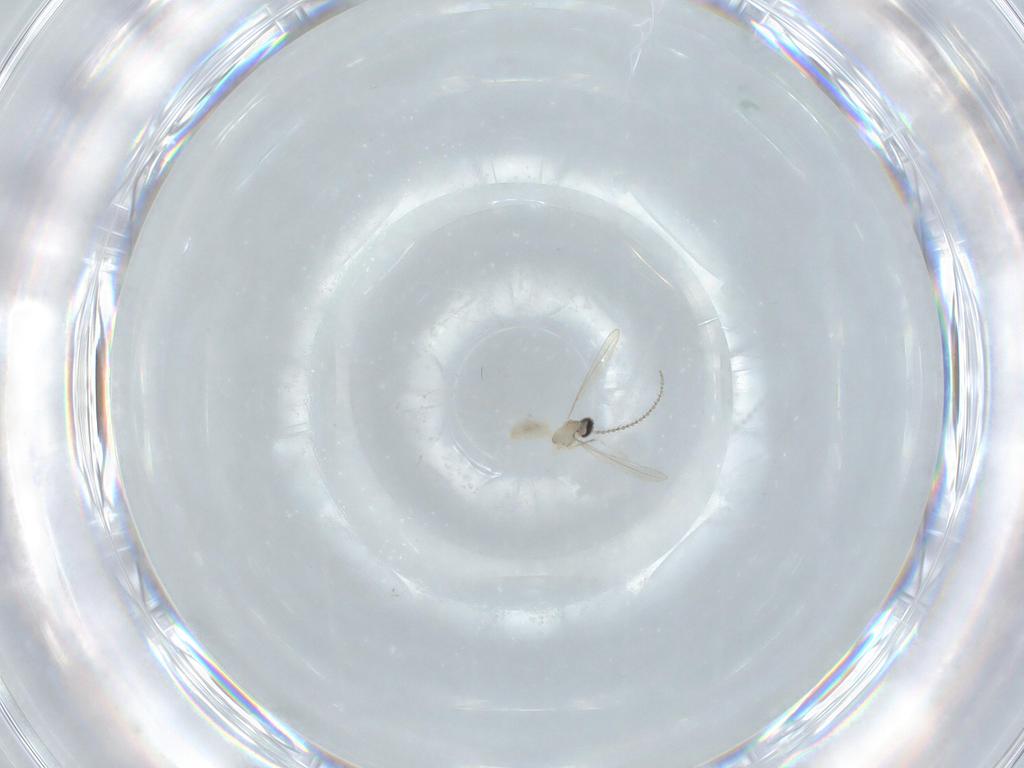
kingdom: Animalia
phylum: Arthropoda
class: Insecta
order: Diptera
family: Cecidomyiidae
